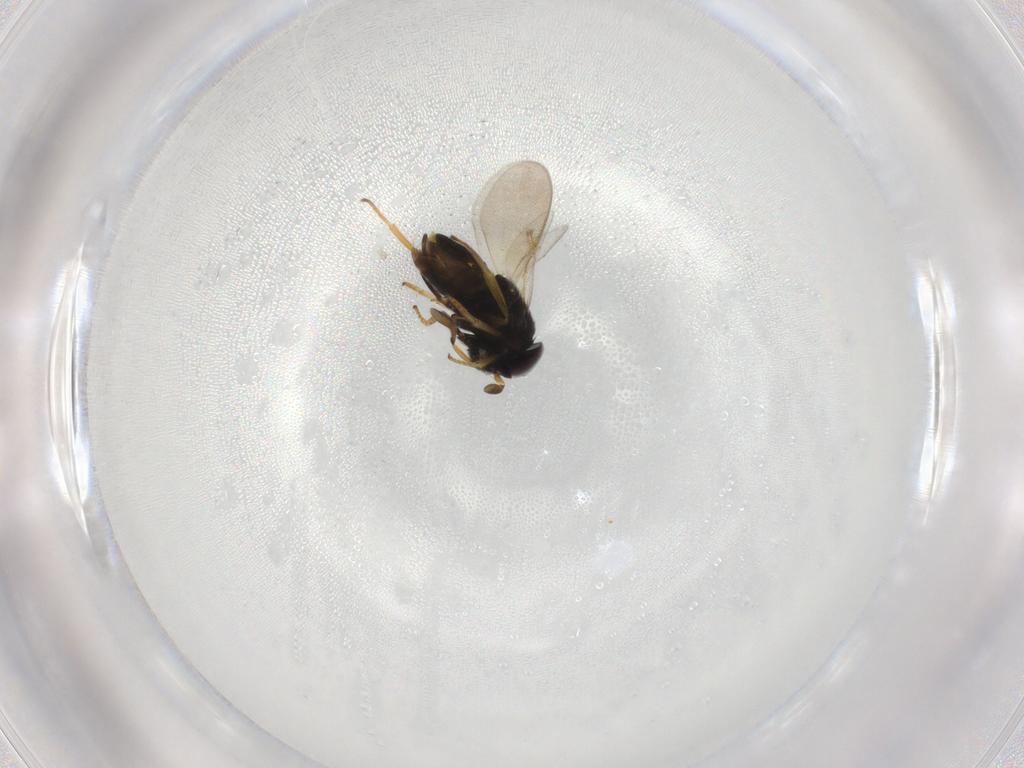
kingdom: Animalia
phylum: Arthropoda
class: Insecta
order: Hymenoptera
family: Encyrtidae
